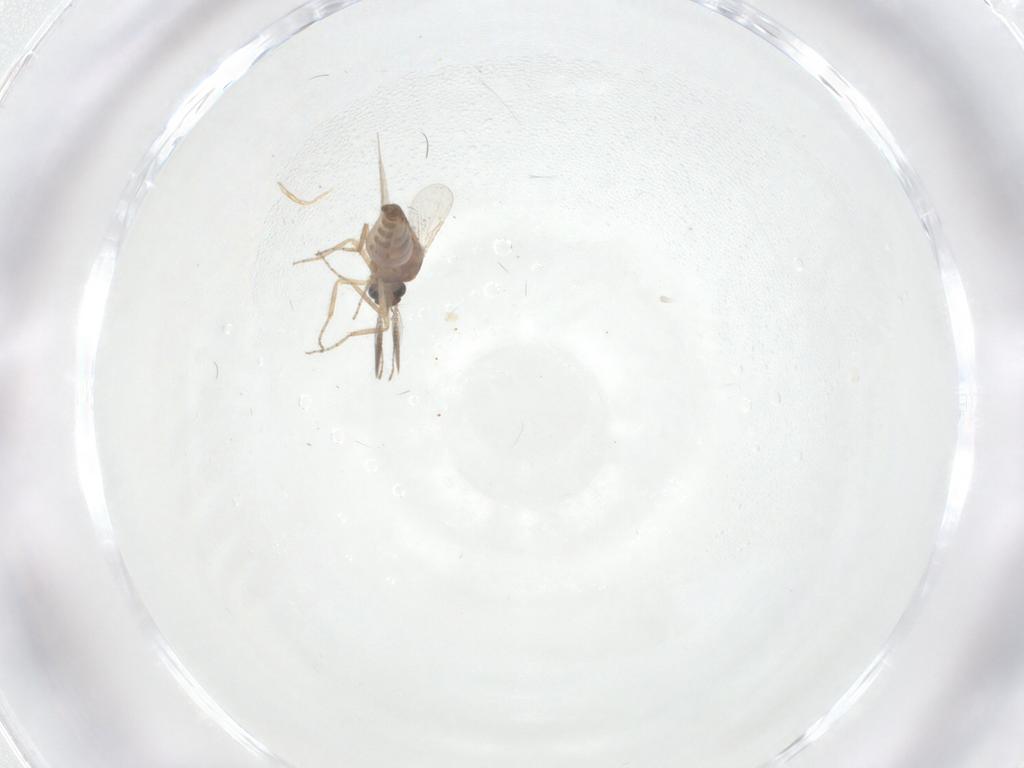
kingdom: Animalia
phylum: Arthropoda
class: Insecta
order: Diptera
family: Ceratopogonidae
